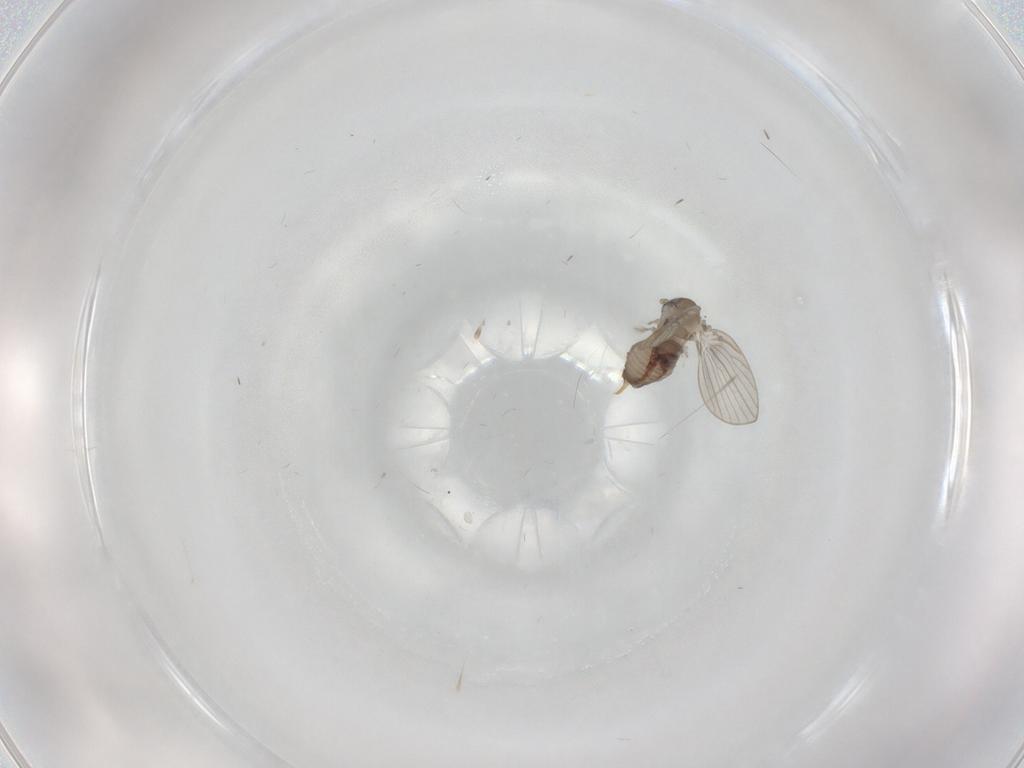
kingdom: Animalia
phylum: Arthropoda
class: Insecta
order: Diptera
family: Psychodidae
